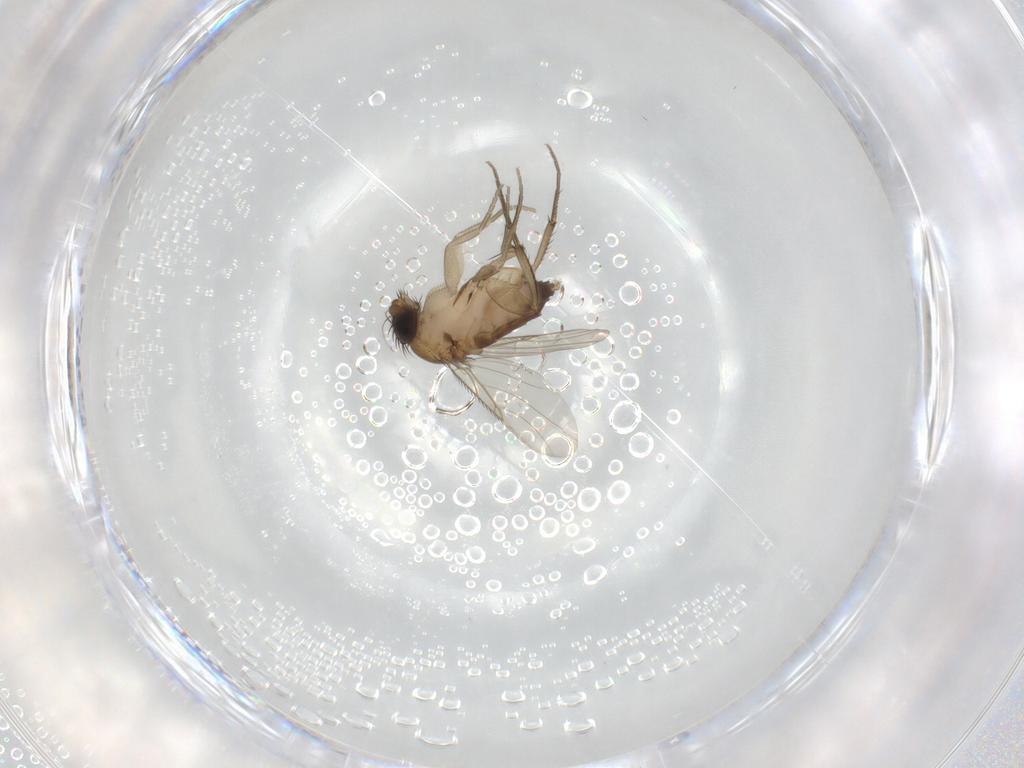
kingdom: Animalia
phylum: Arthropoda
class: Insecta
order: Diptera
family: Phoridae
